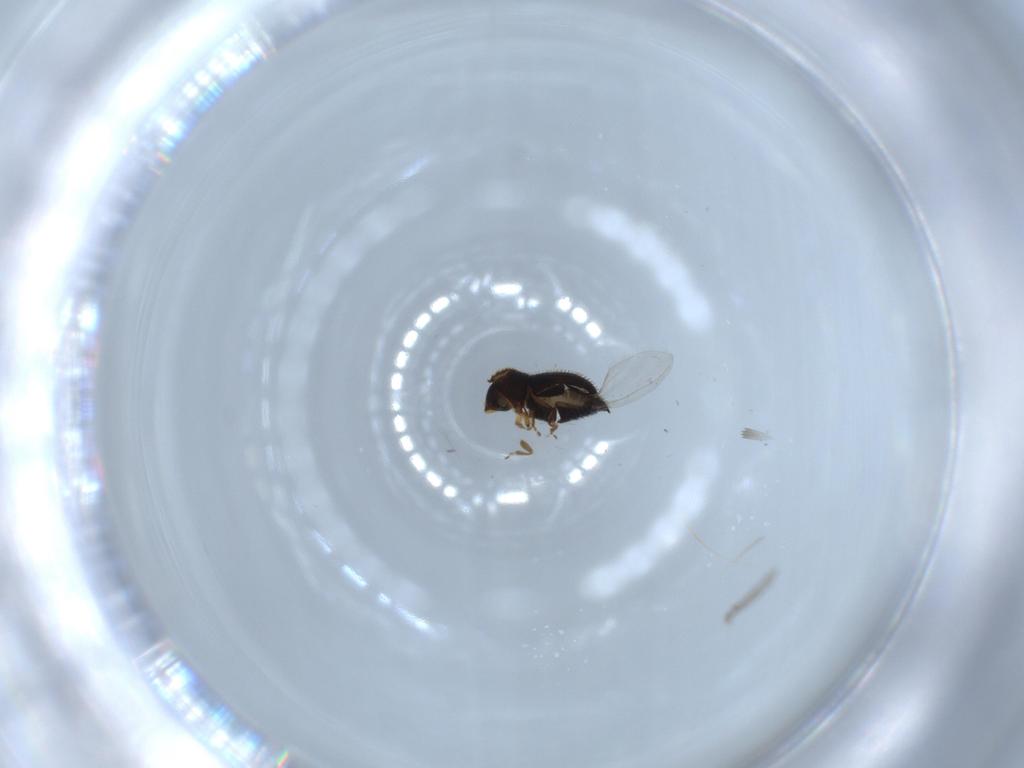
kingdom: Animalia
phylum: Arthropoda
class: Insecta
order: Coleoptera
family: Curculionidae
